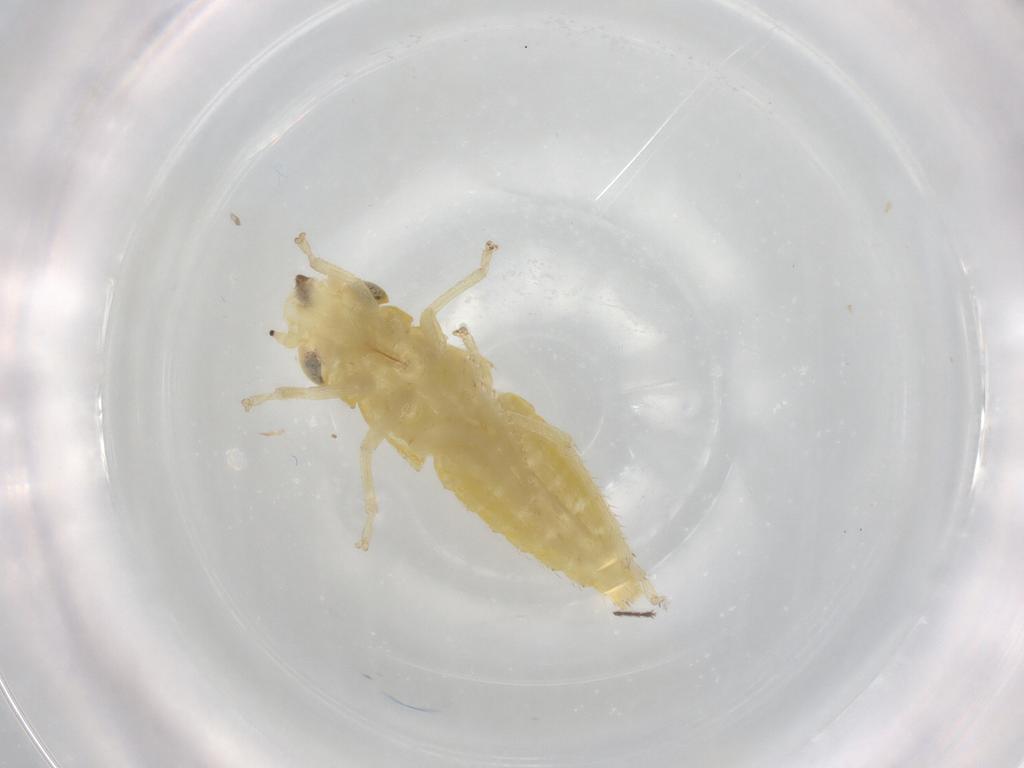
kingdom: Animalia
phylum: Arthropoda
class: Insecta
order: Hemiptera
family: Cicadellidae
